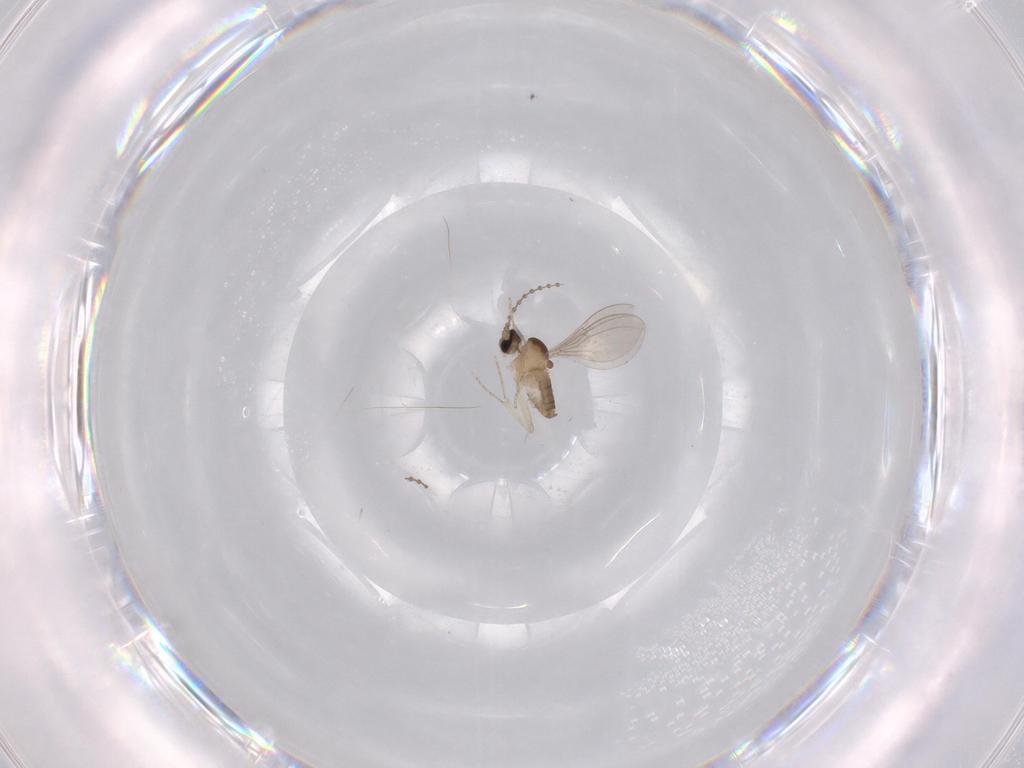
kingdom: Animalia
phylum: Arthropoda
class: Insecta
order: Diptera
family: Cecidomyiidae
